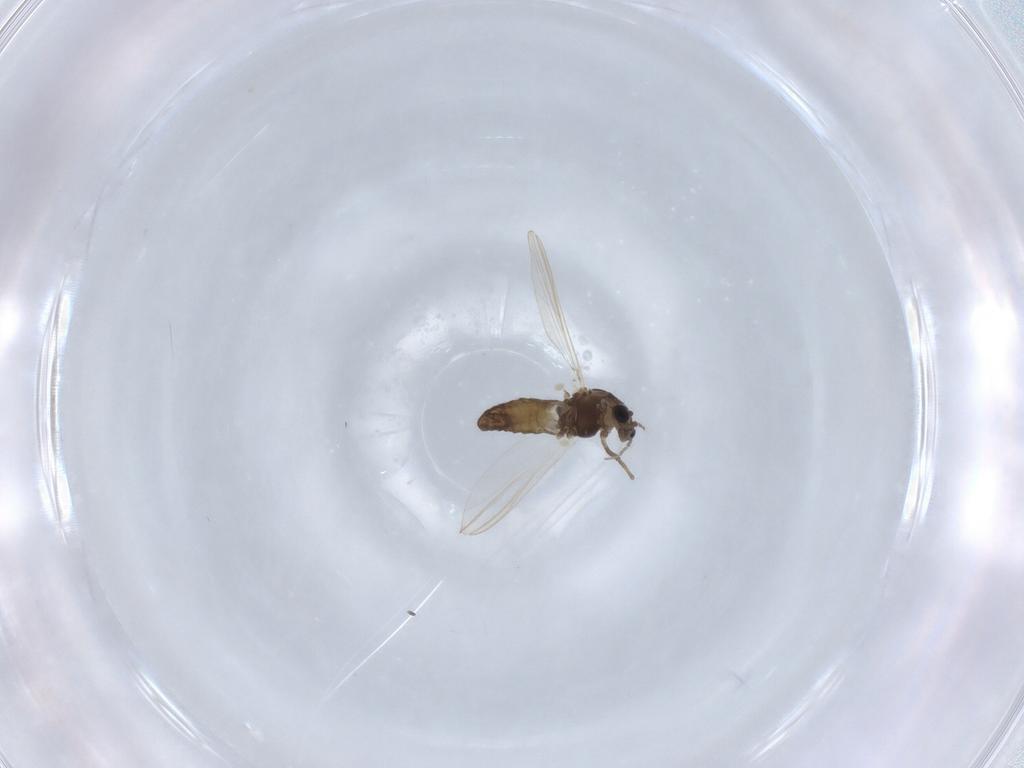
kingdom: Animalia
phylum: Arthropoda
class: Insecta
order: Diptera
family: Chironomidae
